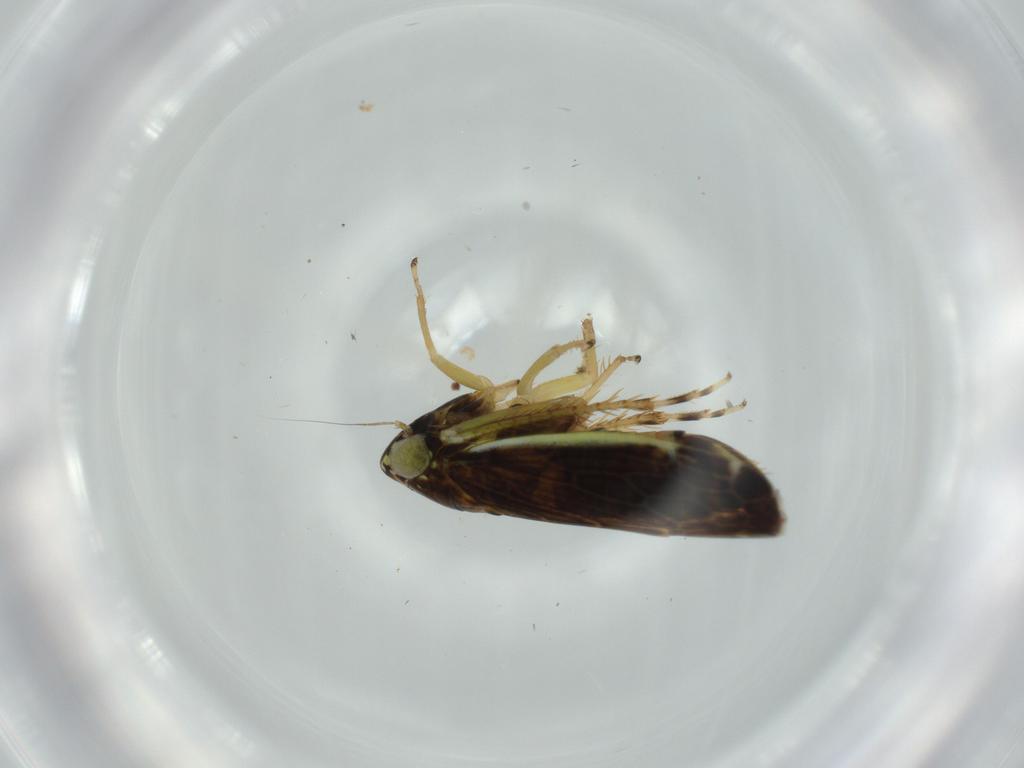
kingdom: Animalia
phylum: Arthropoda
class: Insecta
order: Hemiptera
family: Cicadellidae
